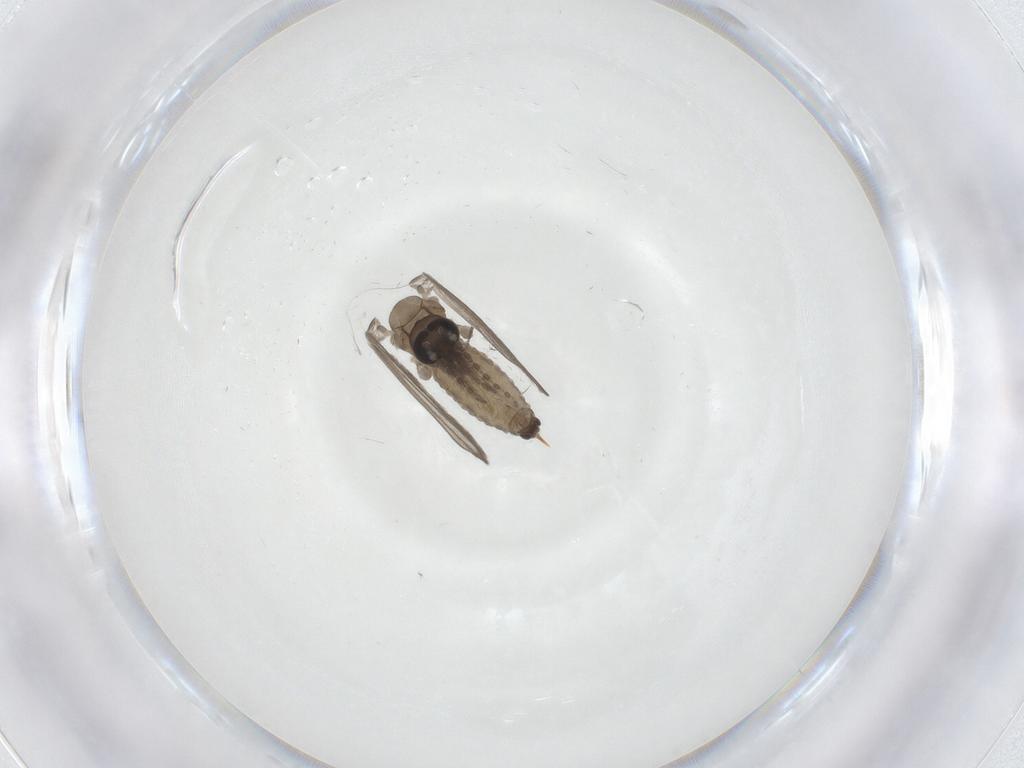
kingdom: Animalia
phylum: Arthropoda
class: Insecta
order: Diptera
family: Psychodidae
